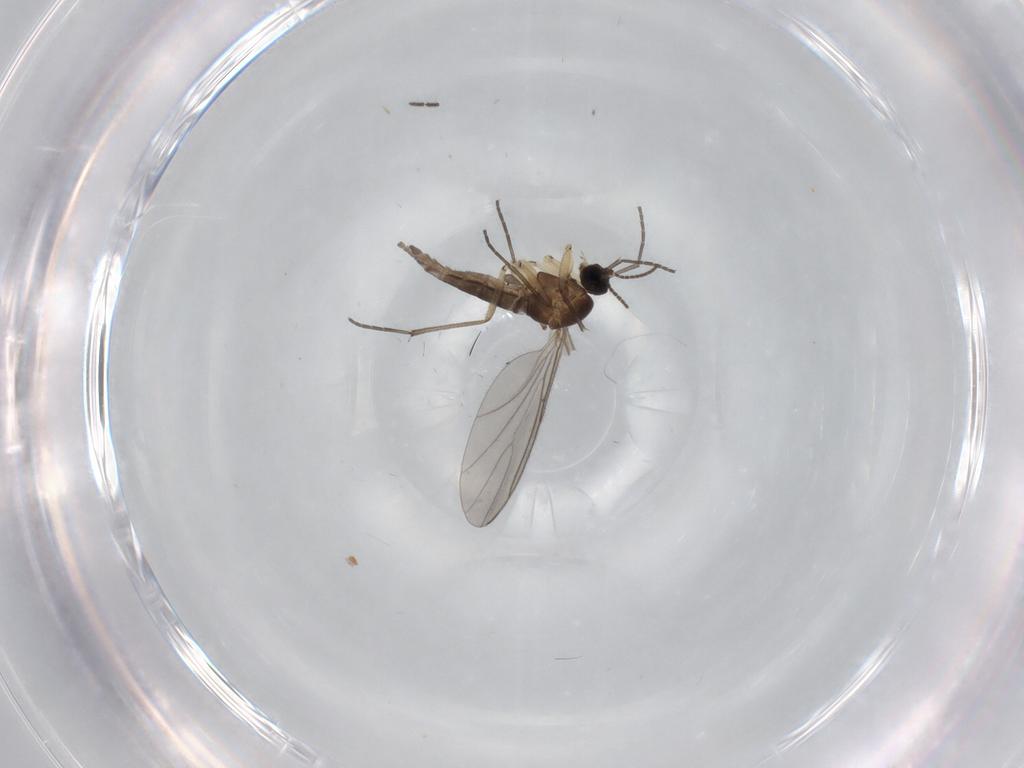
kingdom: Animalia
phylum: Arthropoda
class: Insecta
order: Diptera
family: Sciaridae
